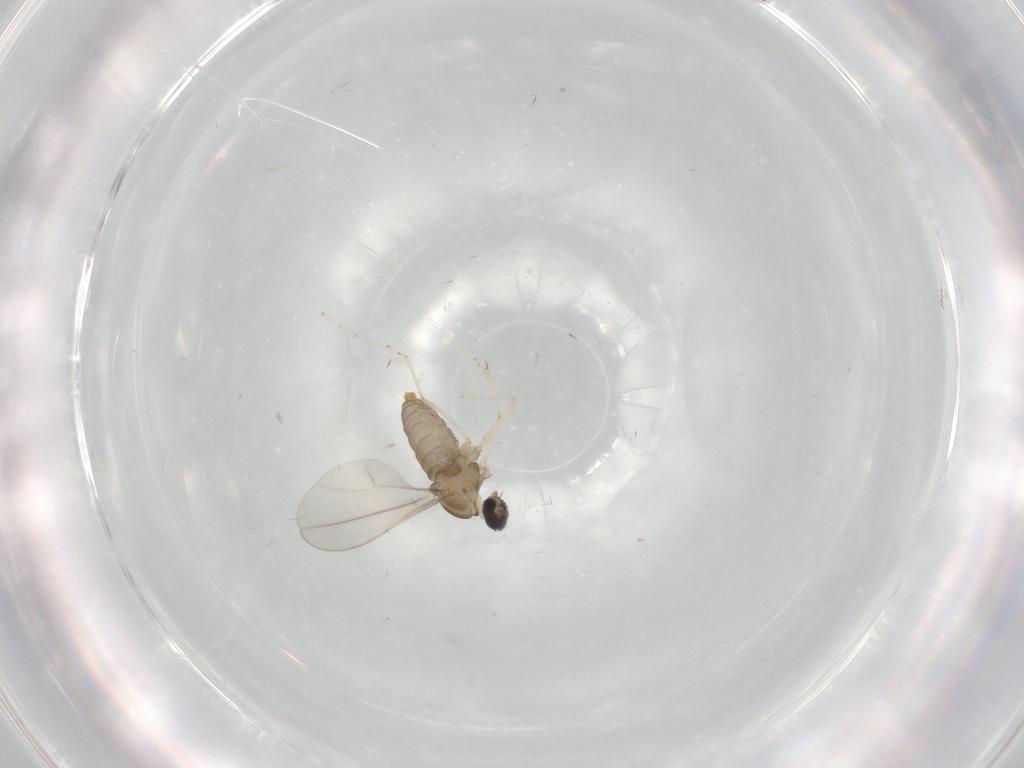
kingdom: Animalia
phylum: Arthropoda
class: Insecta
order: Diptera
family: Cecidomyiidae
